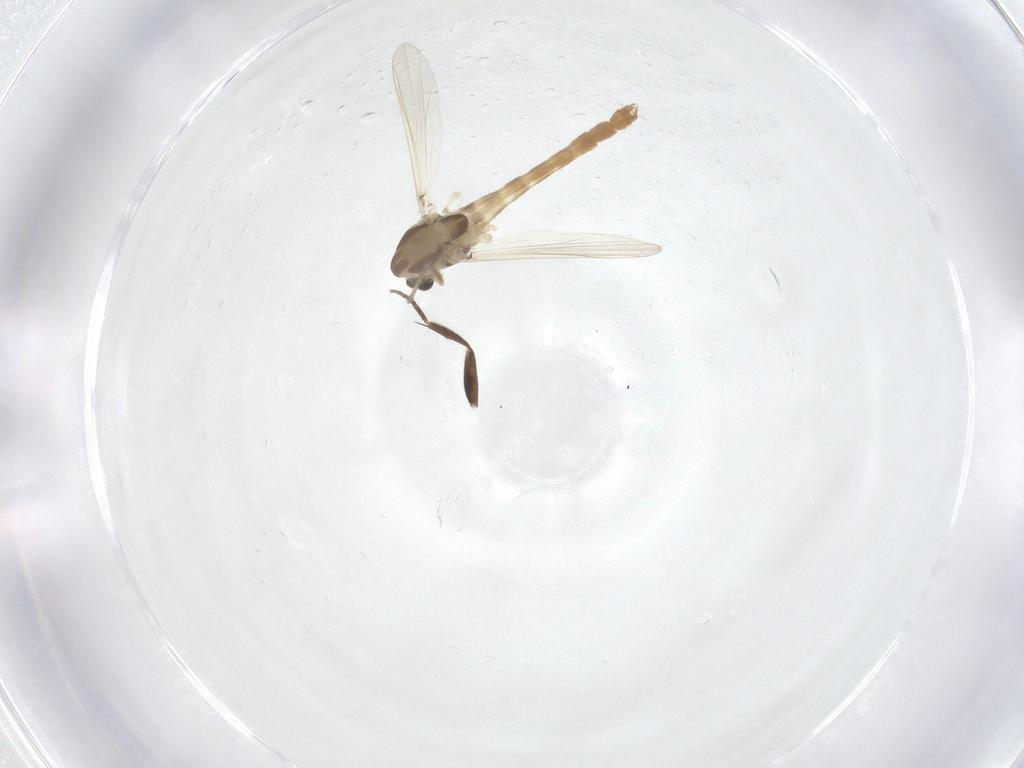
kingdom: Animalia
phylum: Arthropoda
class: Insecta
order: Diptera
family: Chironomidae
